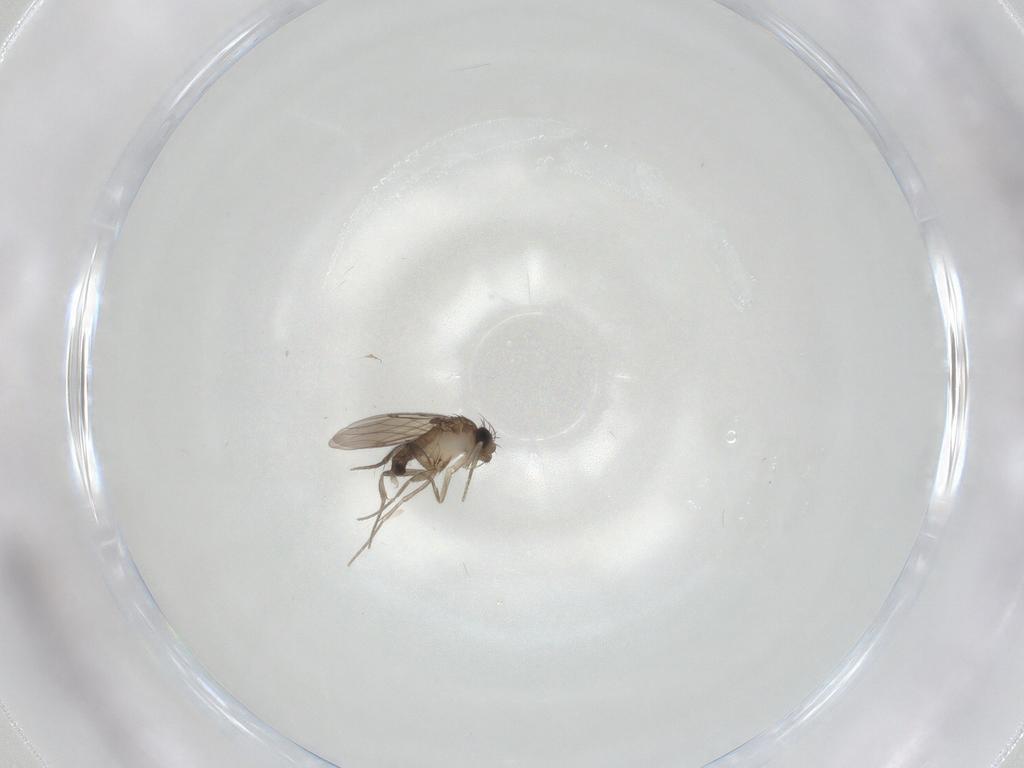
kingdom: Animalia
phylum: Arthropoda
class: Insecta
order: Diptera
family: Phoridae
